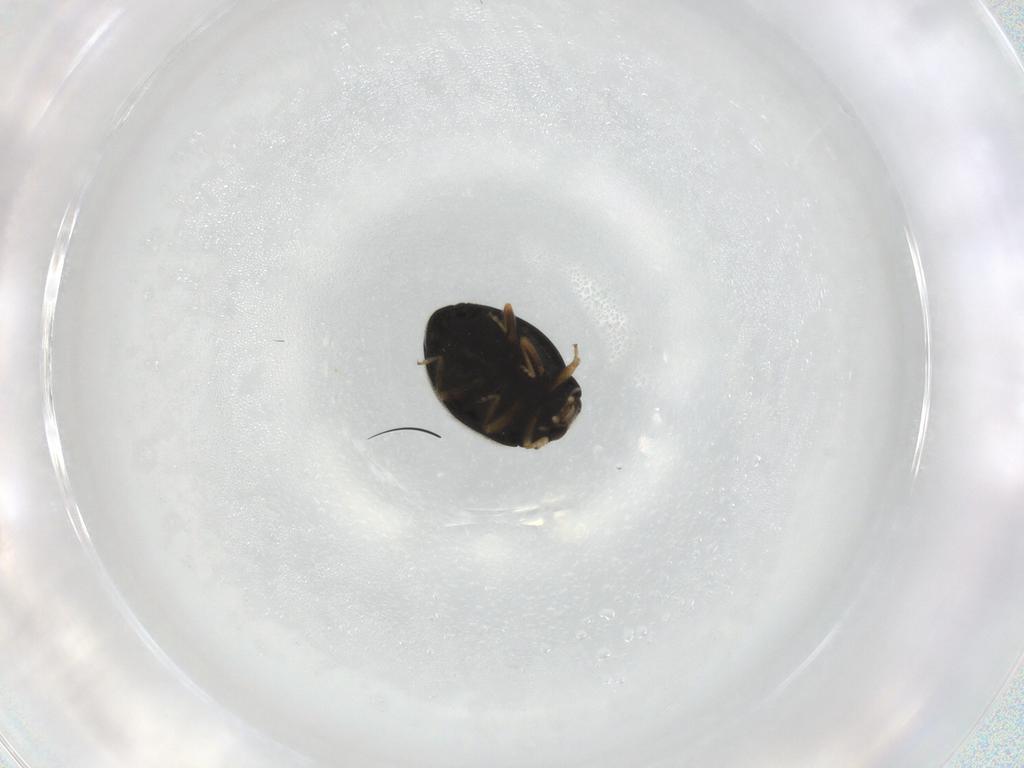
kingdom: Animalia
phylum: Arthropoda
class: Insecta
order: Coleoptera
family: Coccinellidae
